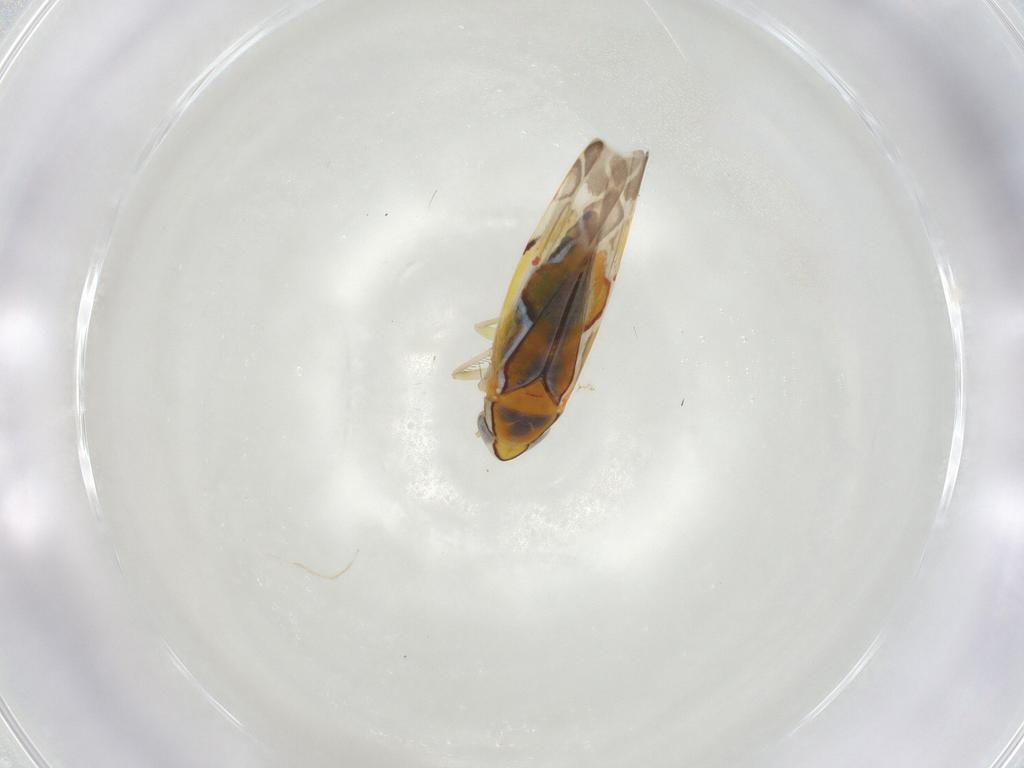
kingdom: Animalia
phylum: Arthropoda
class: Insecta
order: Hemiptera
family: Cicadellidae
